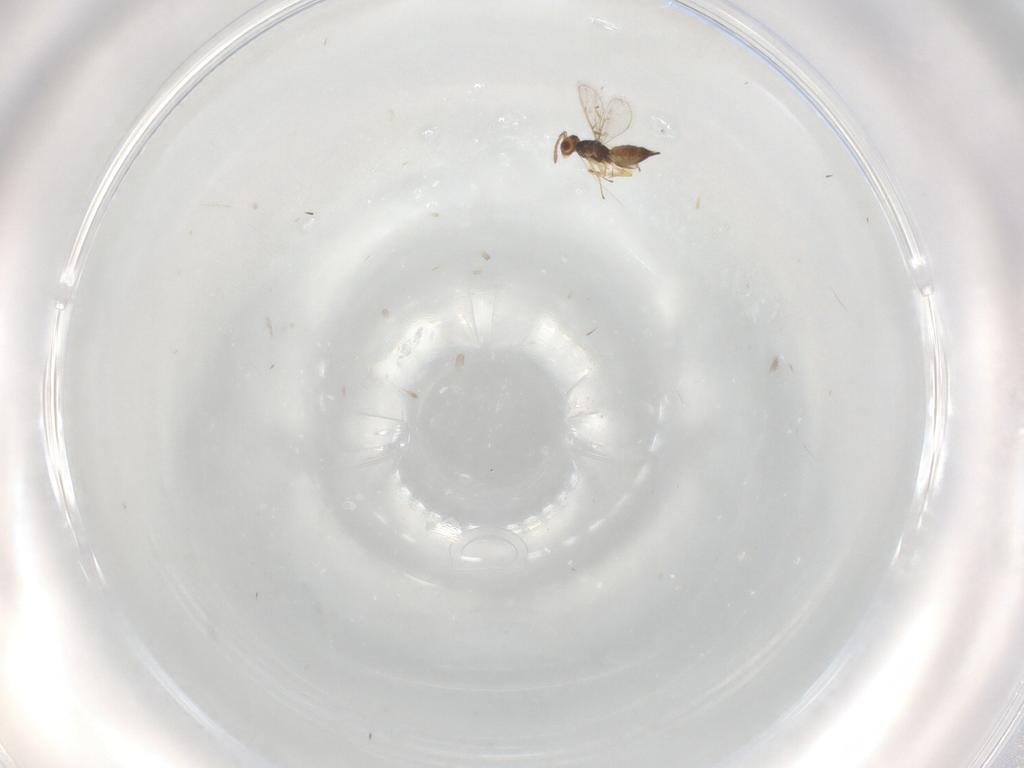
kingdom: Animalia
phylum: Arthropoda
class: Insecta
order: Hymenoptera
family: Eulophidae
